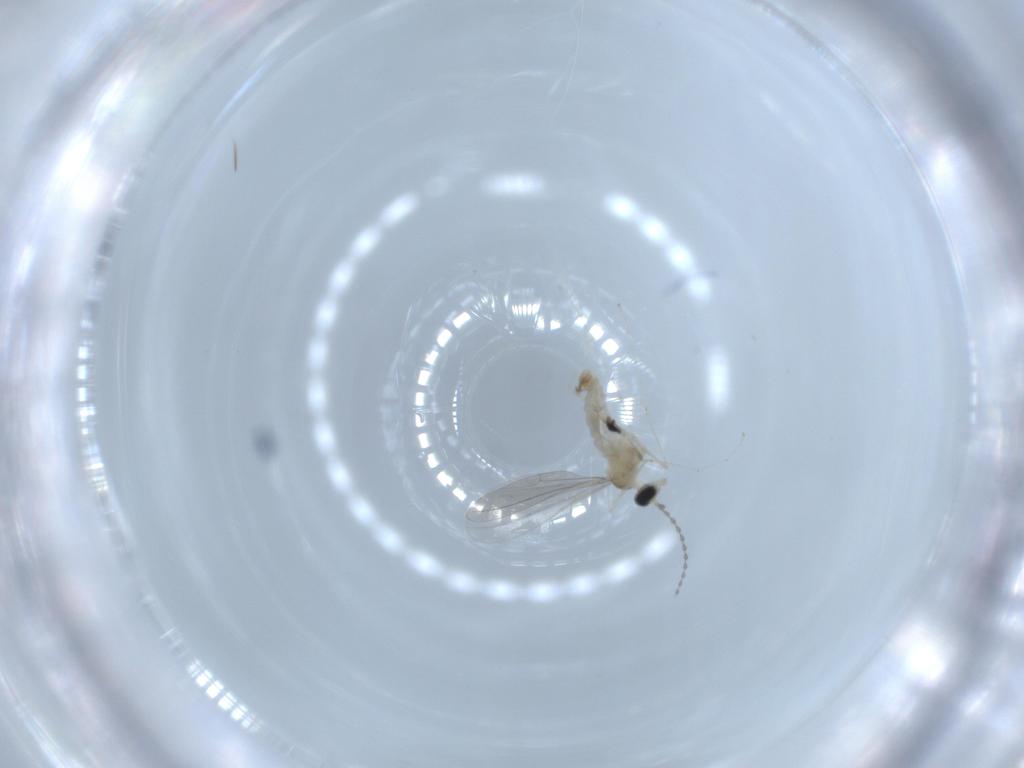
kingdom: Animalia
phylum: Arthropoda
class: Insecta
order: Diptera
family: Cecidomyiidae
